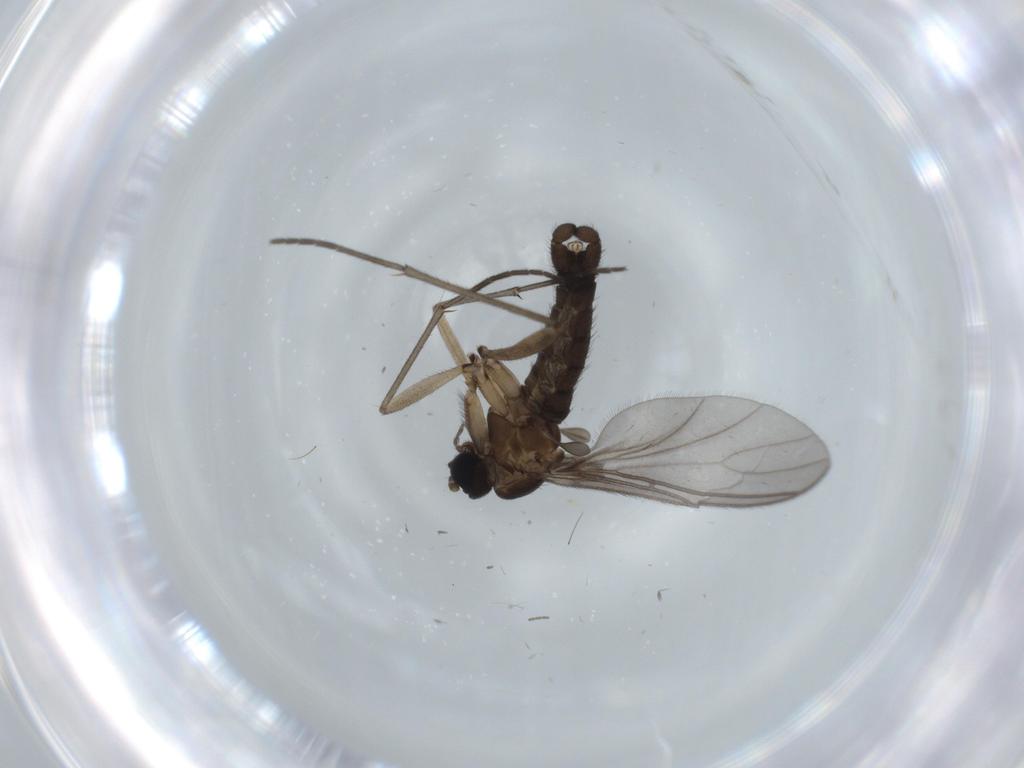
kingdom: Animalia
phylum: Arthropoda
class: Insecta
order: Diptera
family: Sciaridae
